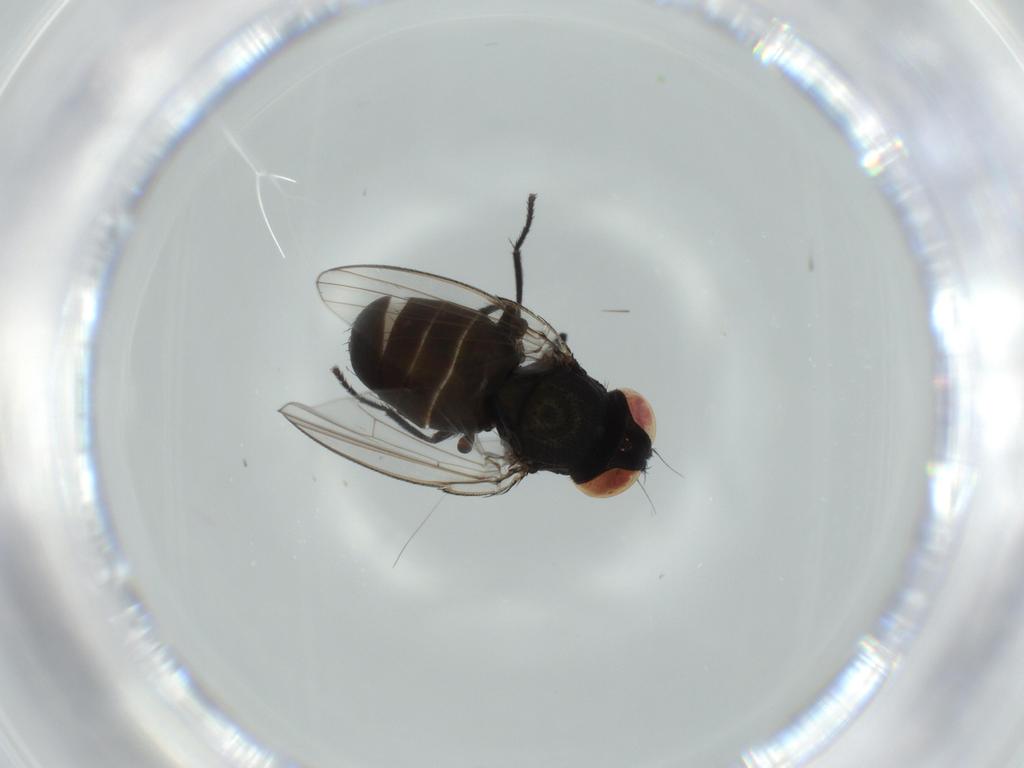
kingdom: Animalia
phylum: Arthropoda
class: Insecta
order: Diptera
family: Milichiidae
